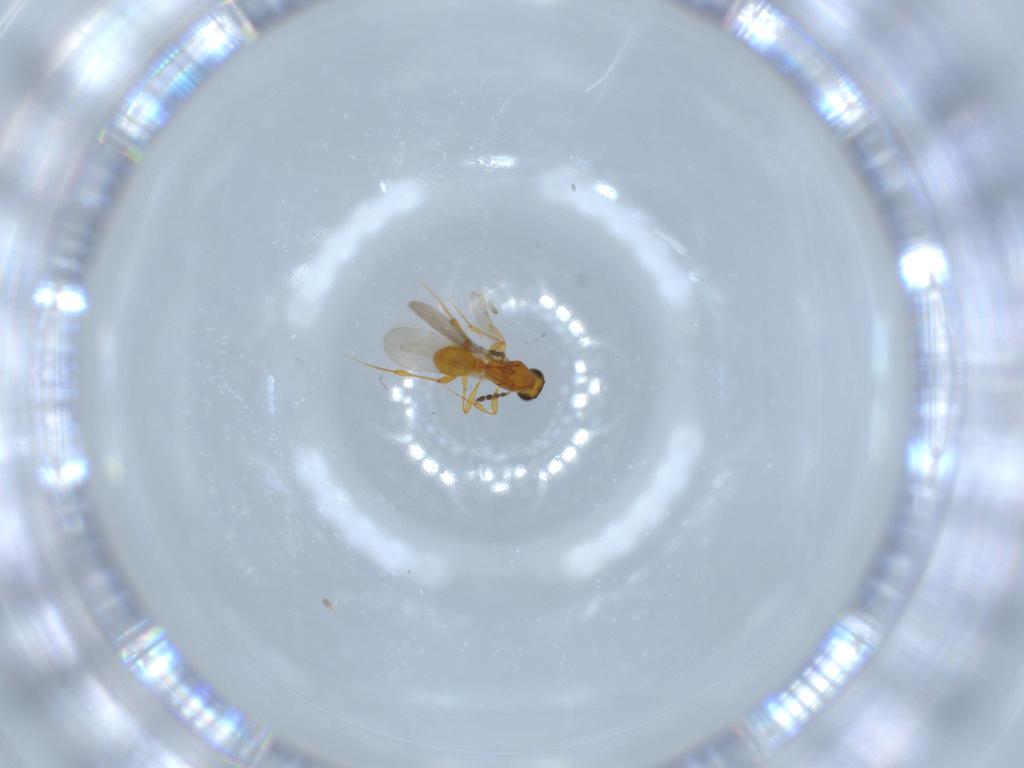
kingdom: Animalia
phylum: Arthropoda
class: Insecta
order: Hymenoptera
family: Platygastridae
